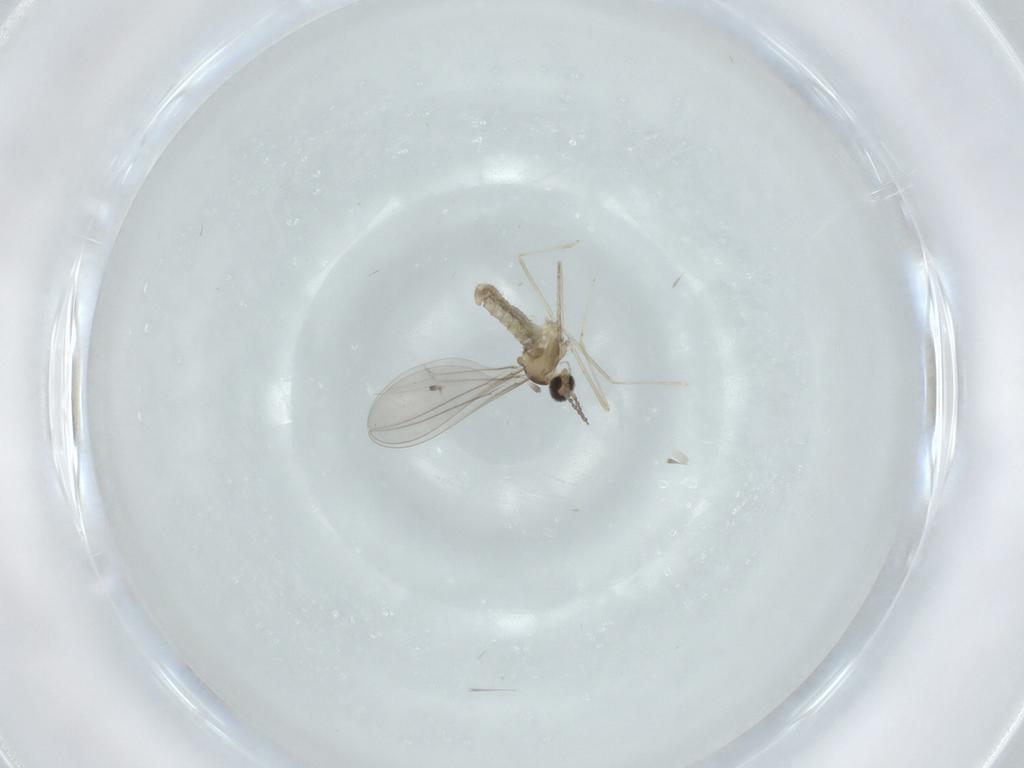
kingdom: Animalia
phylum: Arthropoda
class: Insecta
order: Diptera
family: Cecidomyiidae
